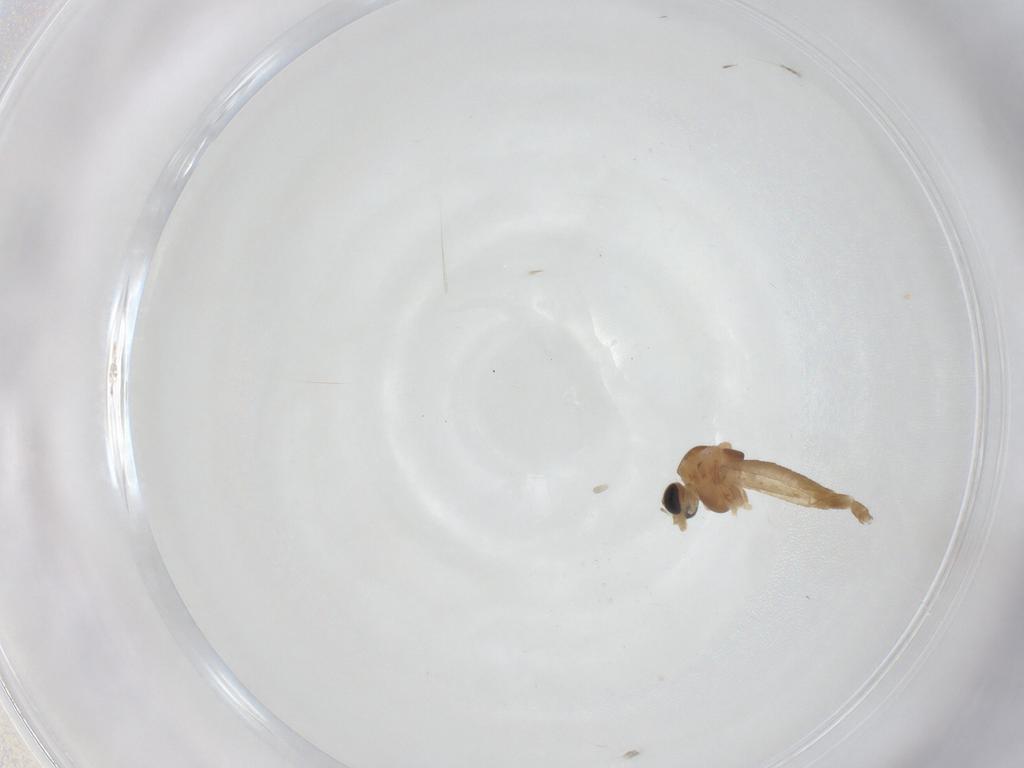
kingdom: Animalia
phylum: Arthropoda
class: Insecta
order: Diptera
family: Chironomidae
